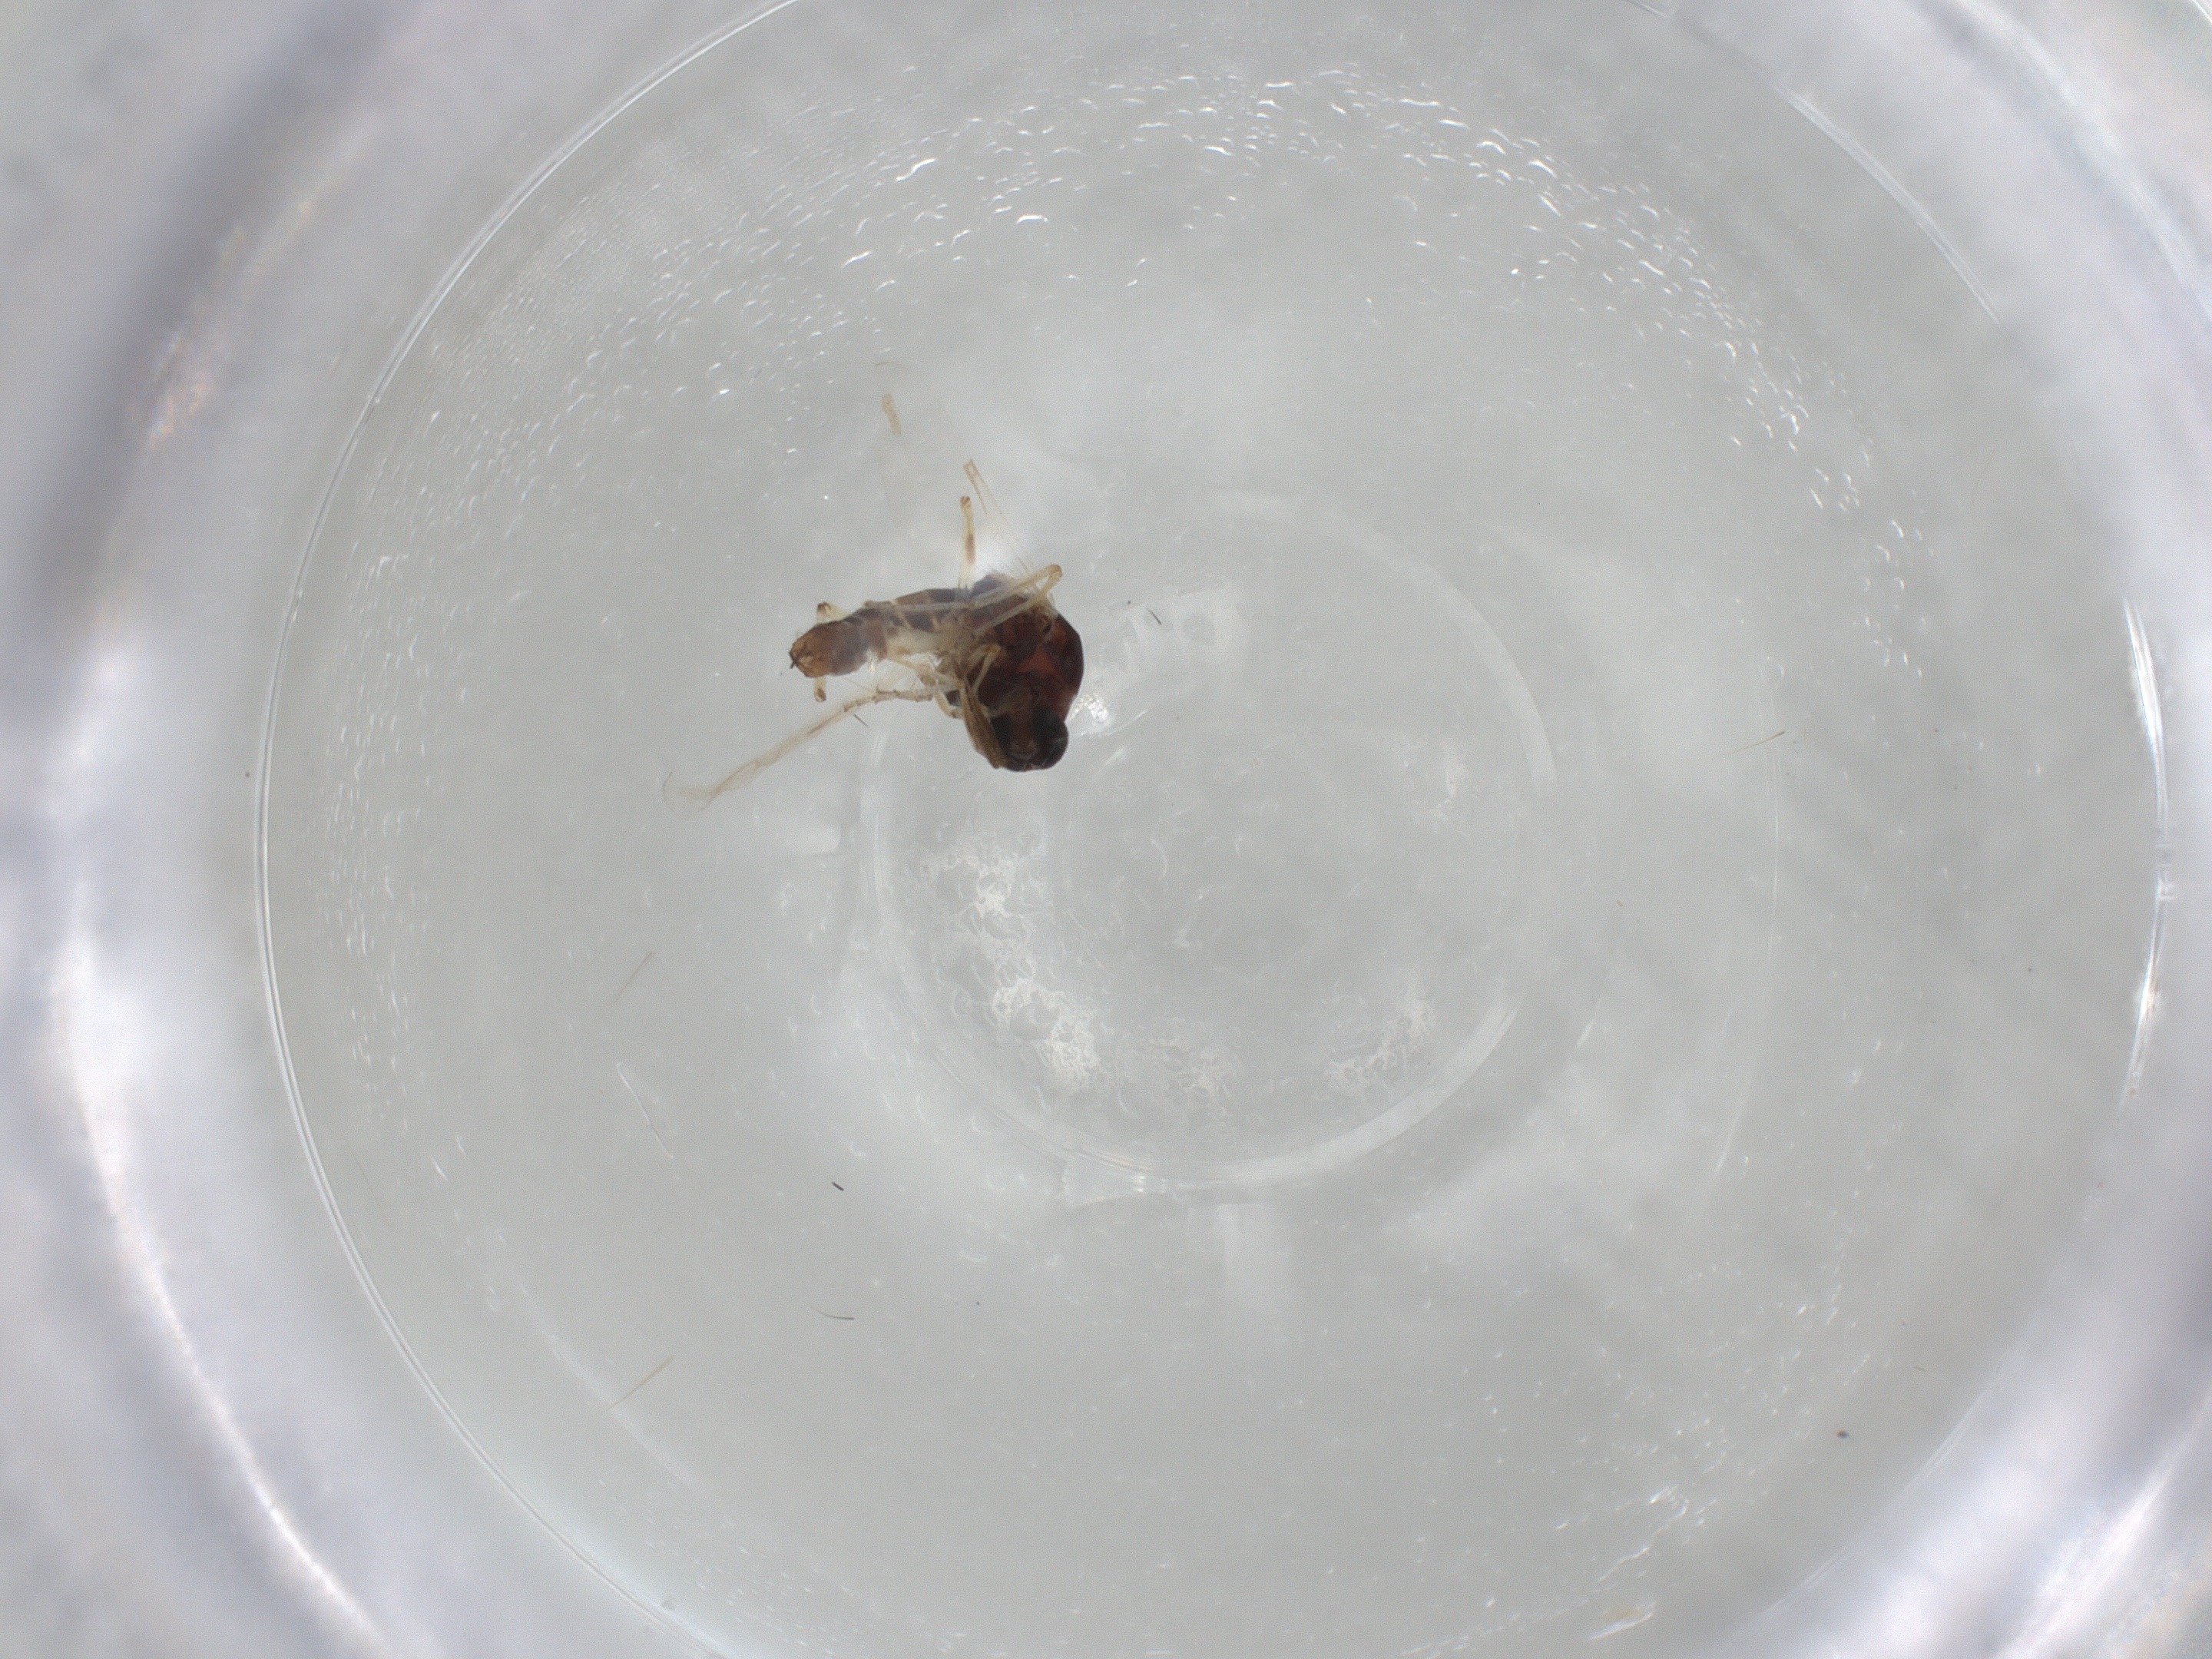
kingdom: Animalia
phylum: Arthropoda
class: Insecta
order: Diptera
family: Ceratopogonidae
